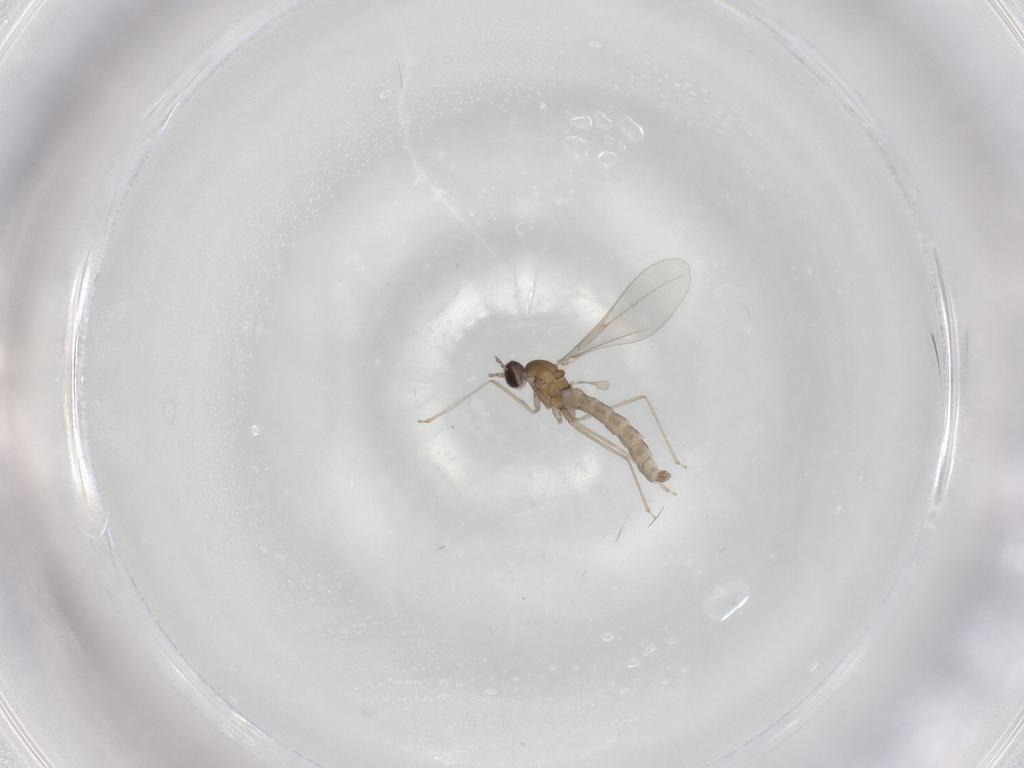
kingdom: Animalia
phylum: Arthropoda
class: Insecta
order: Diptera
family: Cecidomyiidae
